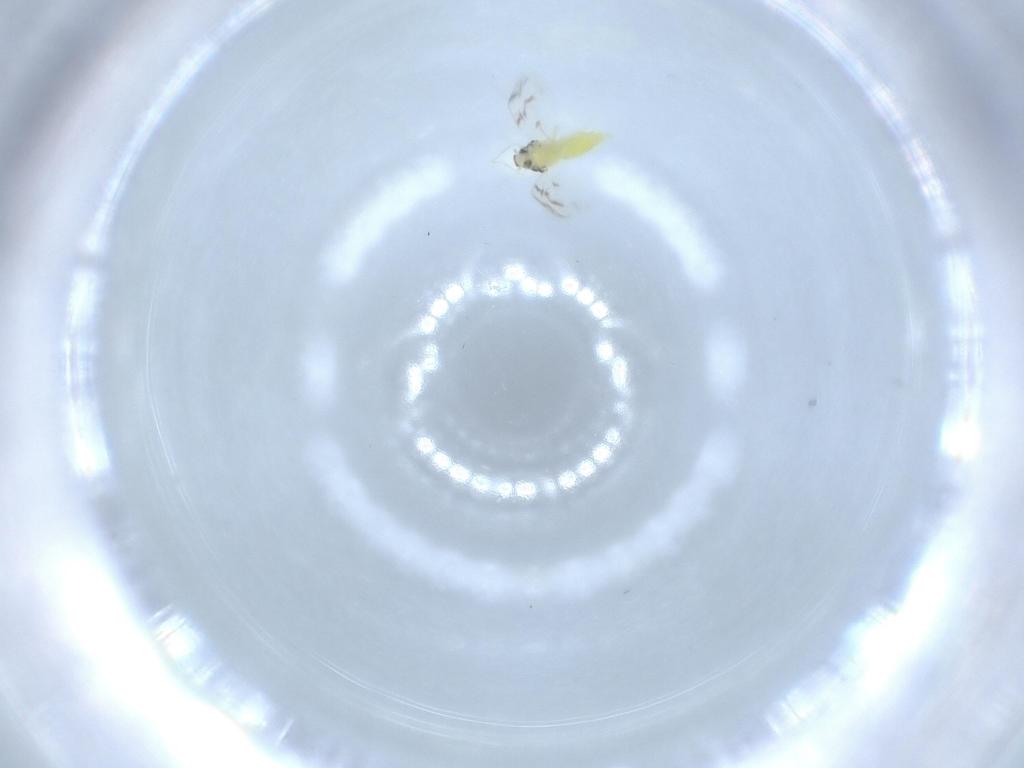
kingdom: Animalia
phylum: Arthropoda
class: Insecta
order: Hemiptera
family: Aleyrodidae
